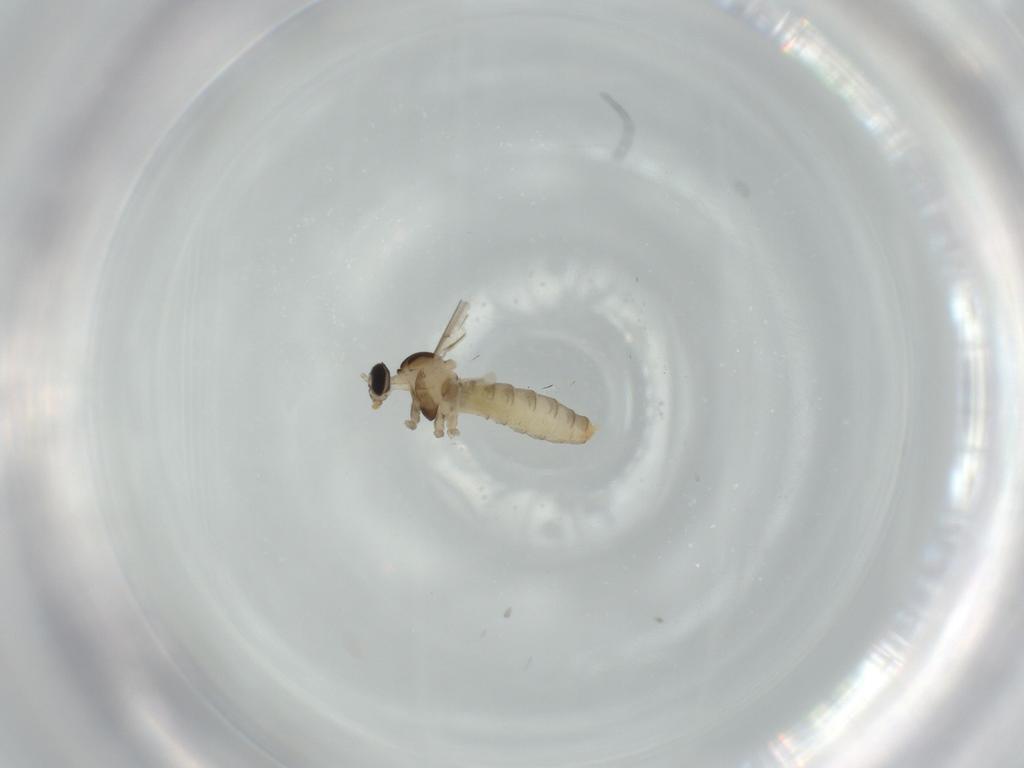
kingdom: Animalia
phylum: Arthropoda
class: Insecta
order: Diptera
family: Cecidomyiidae
